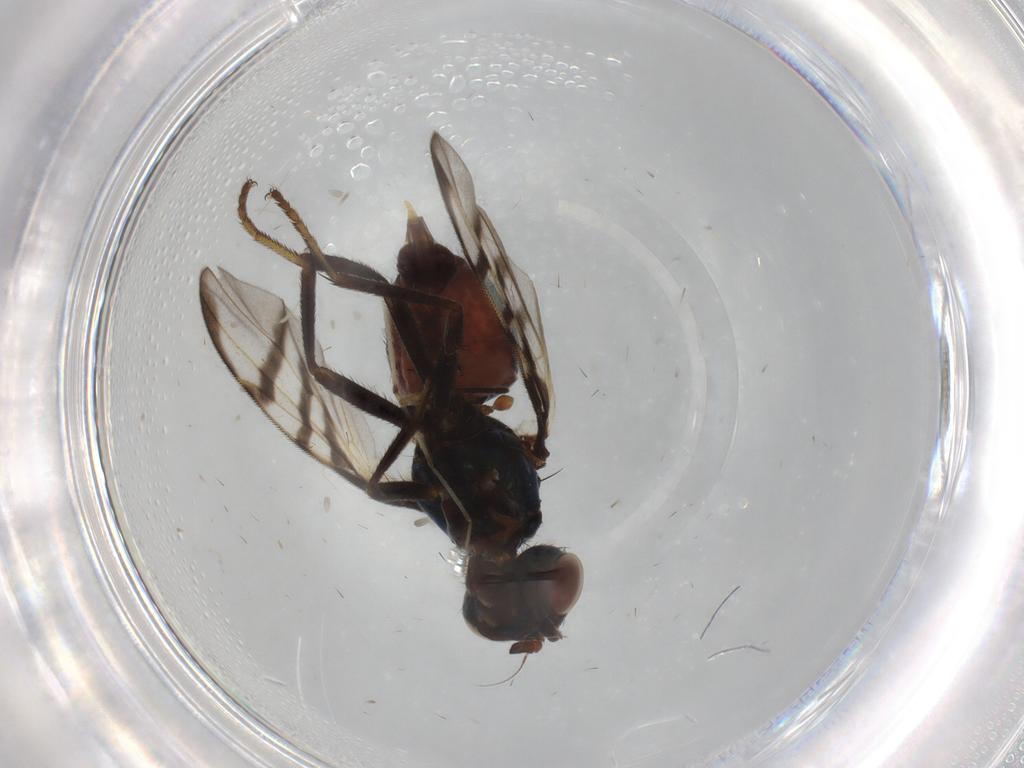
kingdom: Animalia
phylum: Arthropoda
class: Insecta
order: Diptera
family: Chironomidae
